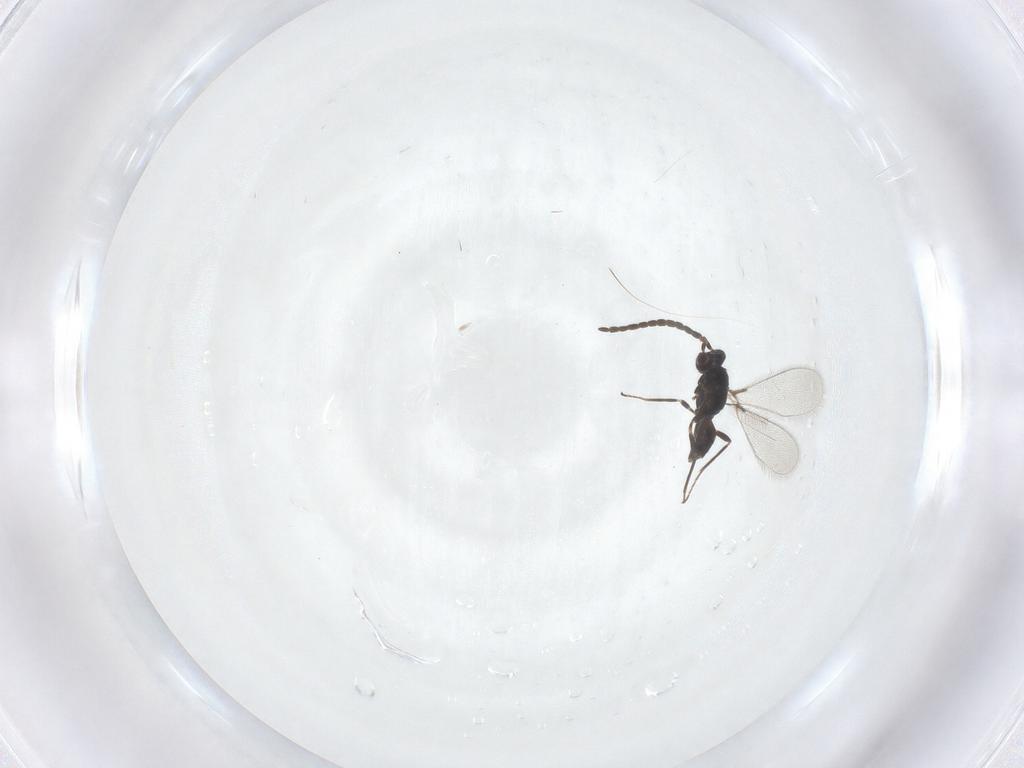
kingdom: Animalia
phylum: Arthropoda
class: Insecta
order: Hymenoptera
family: Mymaridae
